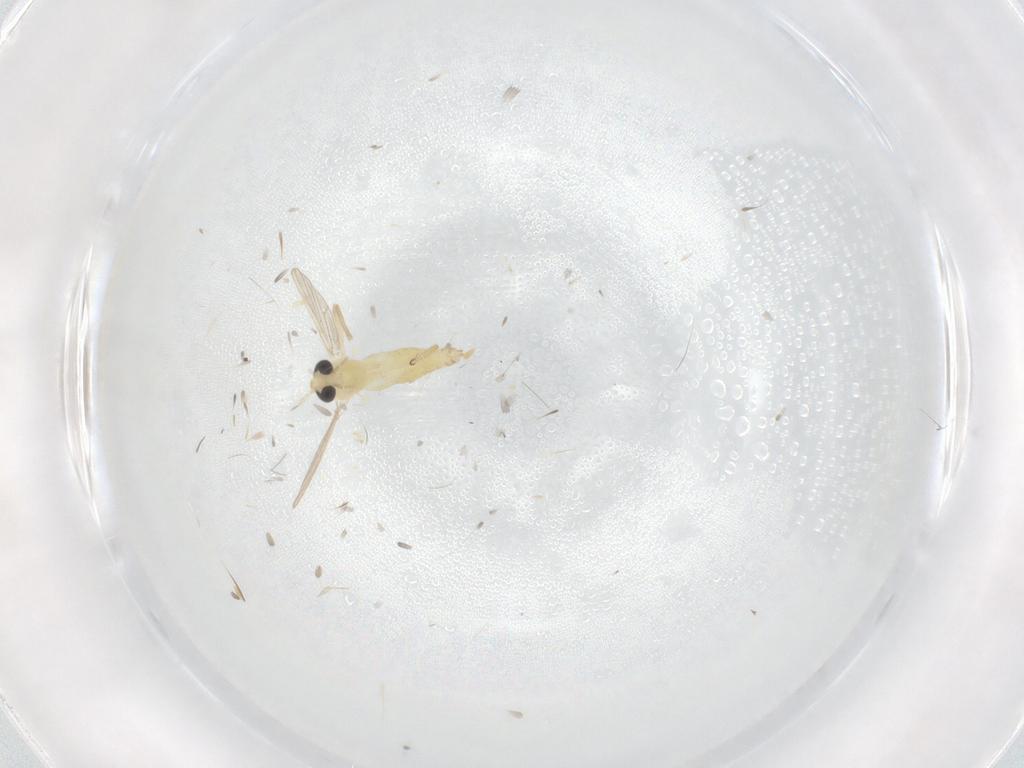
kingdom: Animalia
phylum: Arthropoda
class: Insecta
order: Diptera
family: Chironomidae
